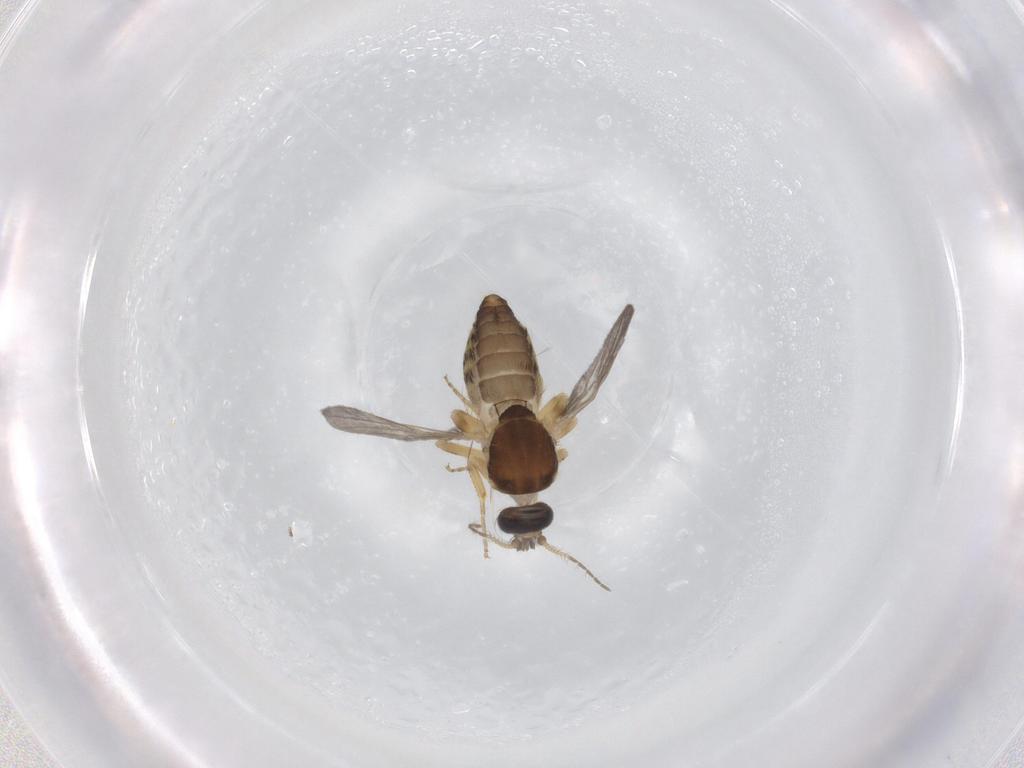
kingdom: Animalia
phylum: Arthropoda
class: Insecta
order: Diptera
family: Ceratopogonidae
